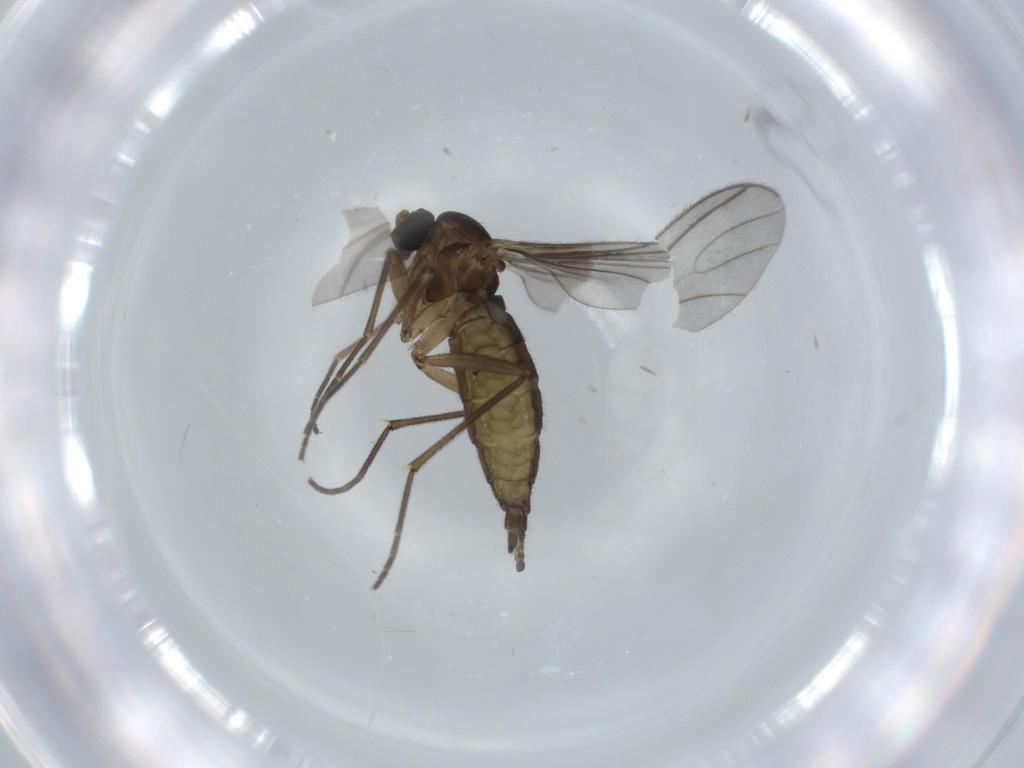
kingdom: Animalia
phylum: Arthropoda
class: Insecta
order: Diptera
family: Sciaridae
